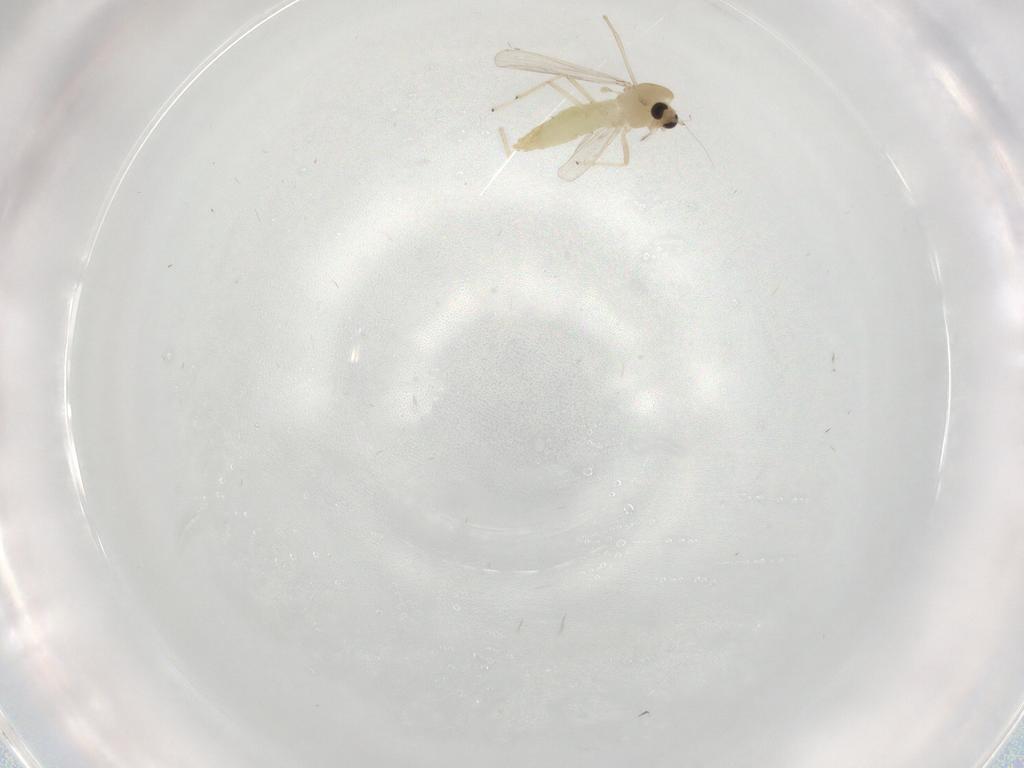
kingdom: Animalia
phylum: Arthropoda
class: Insecta
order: Diptera
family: Chironomidae
